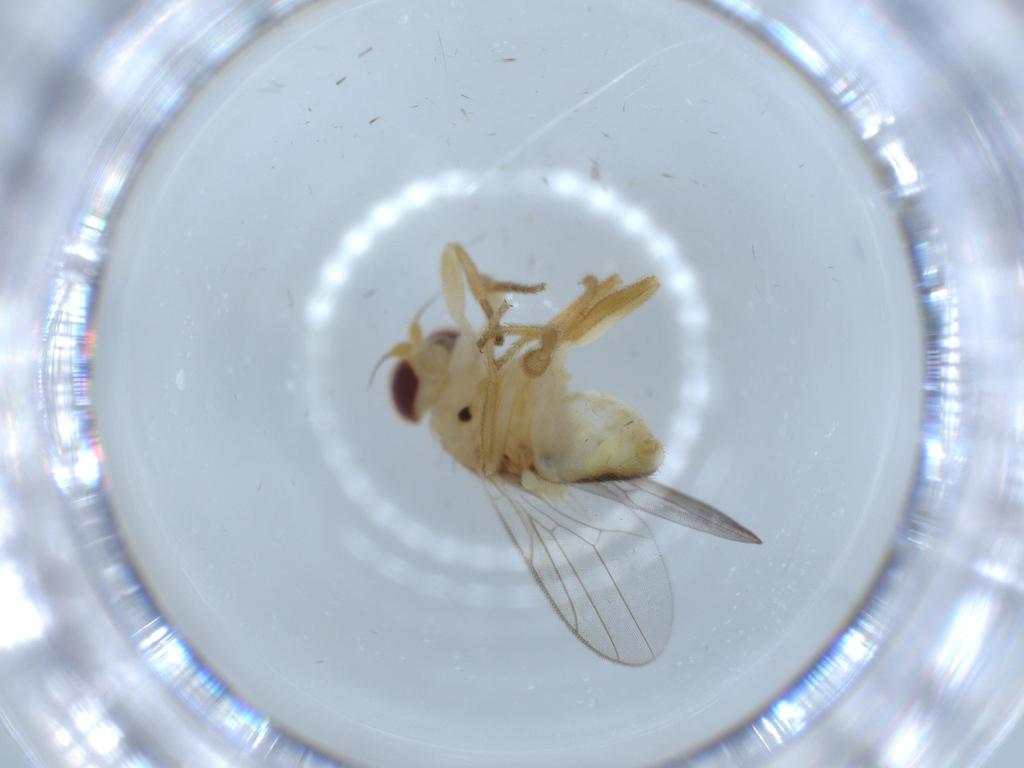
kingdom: Animalia
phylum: Arthropoda
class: Insecta
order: Diptera
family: Chloropidae
